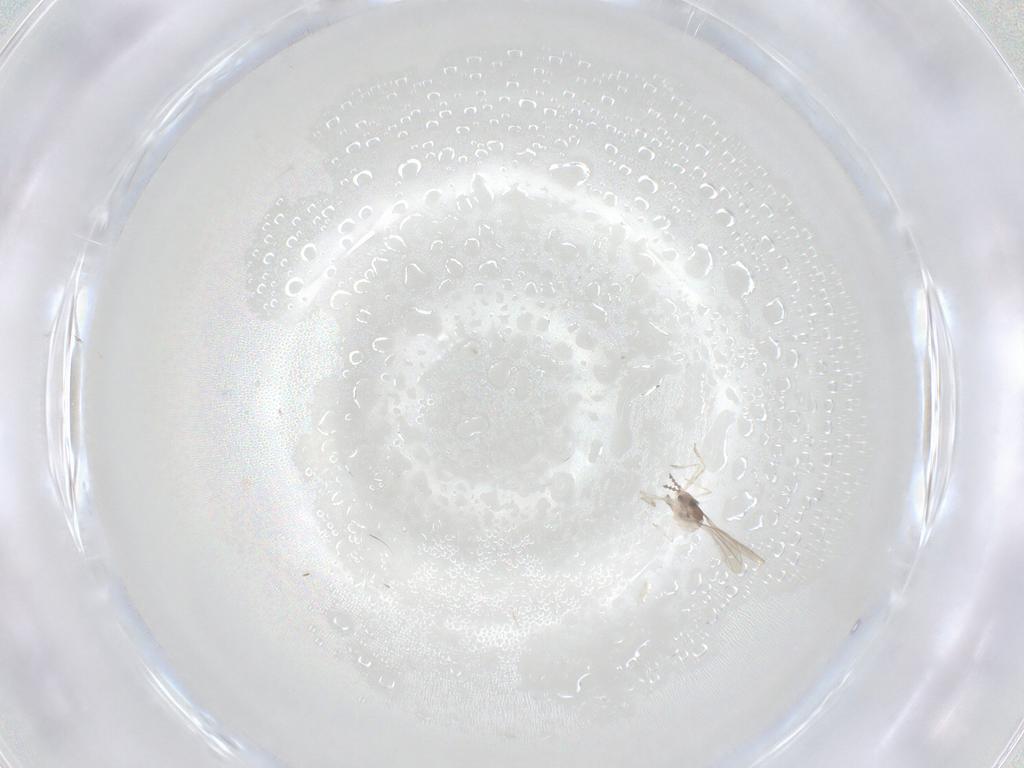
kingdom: Animalia
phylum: Arthropoda
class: Insecta
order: Diptera
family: Cecidomyiidae
